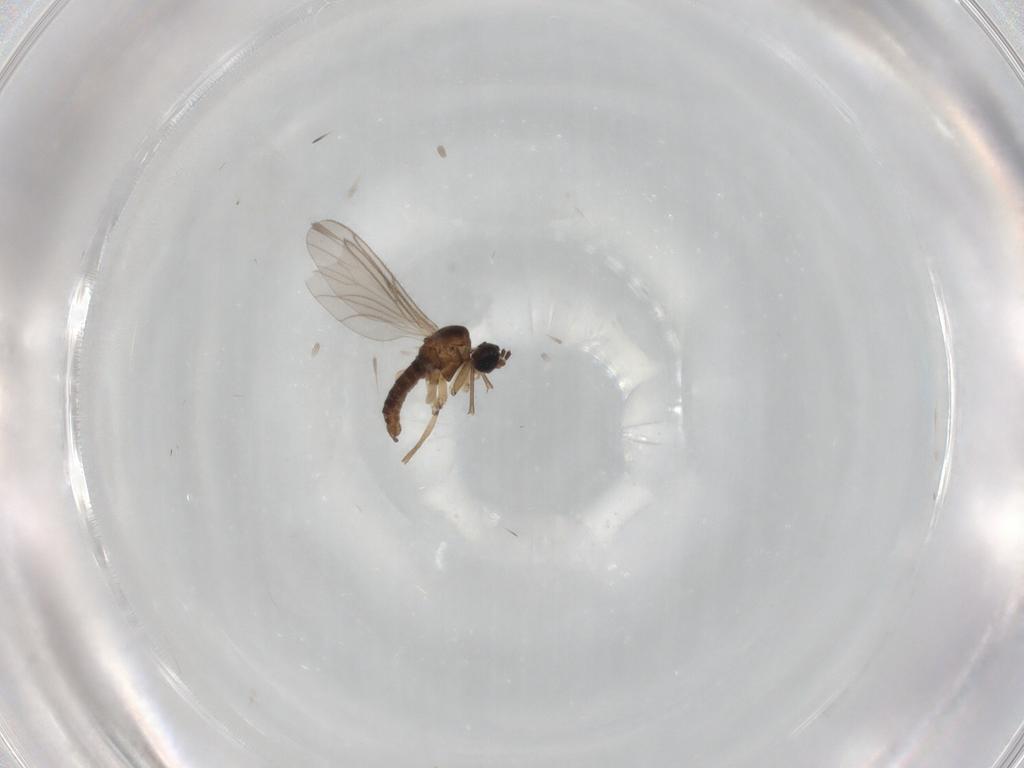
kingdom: Animalia
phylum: Arthropoda
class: Insecta
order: Diptera
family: Sciaridae
